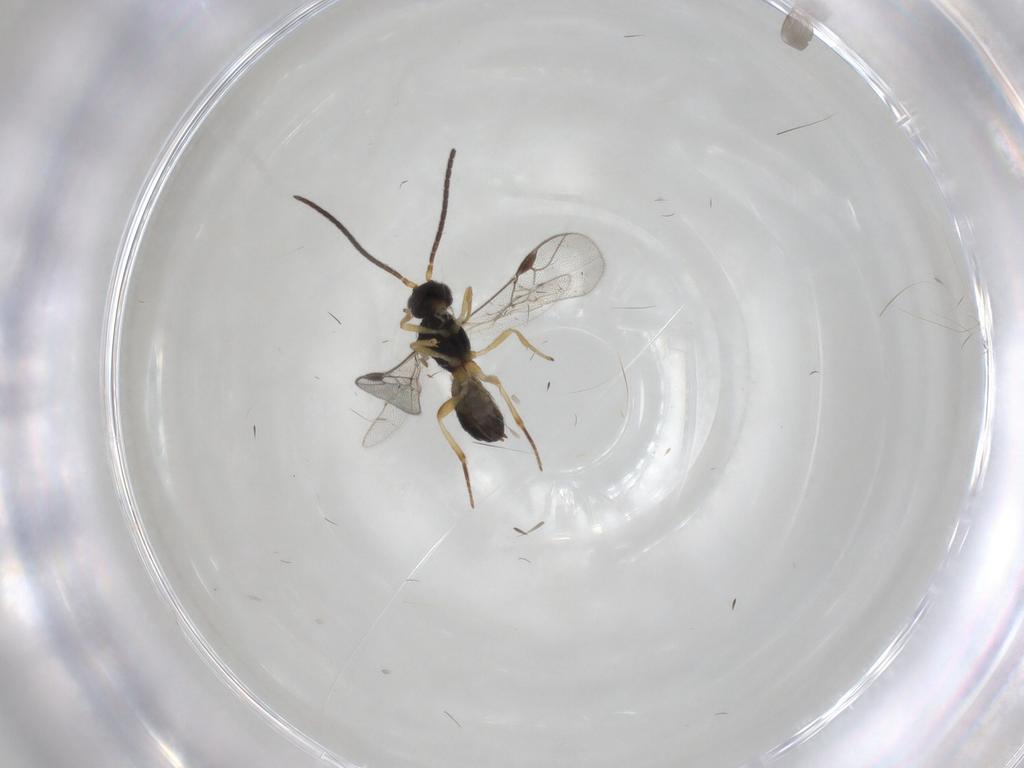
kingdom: Animalia
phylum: Arthropoda
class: Insecta
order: Hymenoptera
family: Braconidae
